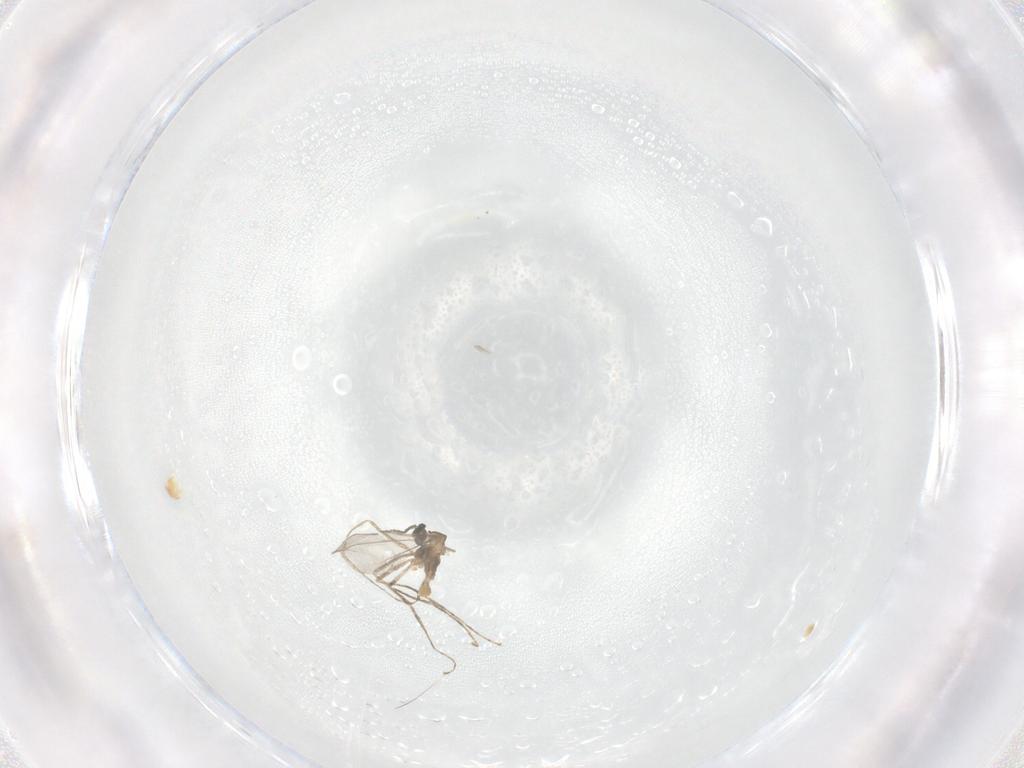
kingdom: Animalia
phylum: Arthropoda
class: Insecta
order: Diptera
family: Cecidomyiidae
